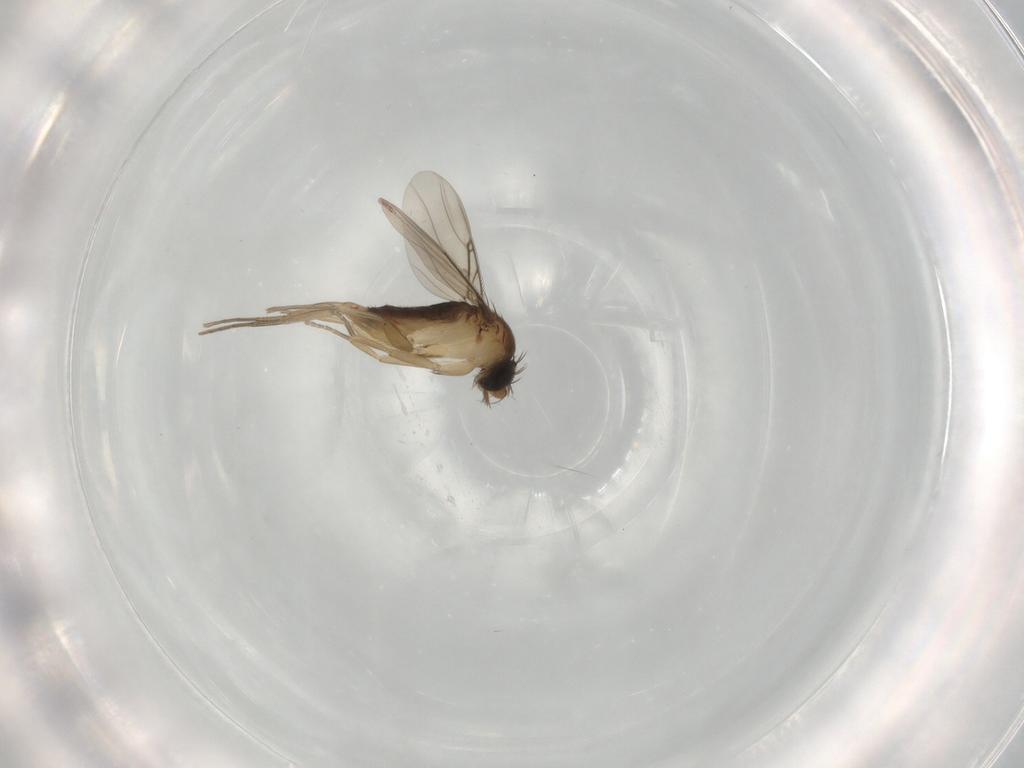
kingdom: Animalia
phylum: Arthropoda
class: Insecta
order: Diptera
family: Phoridae
